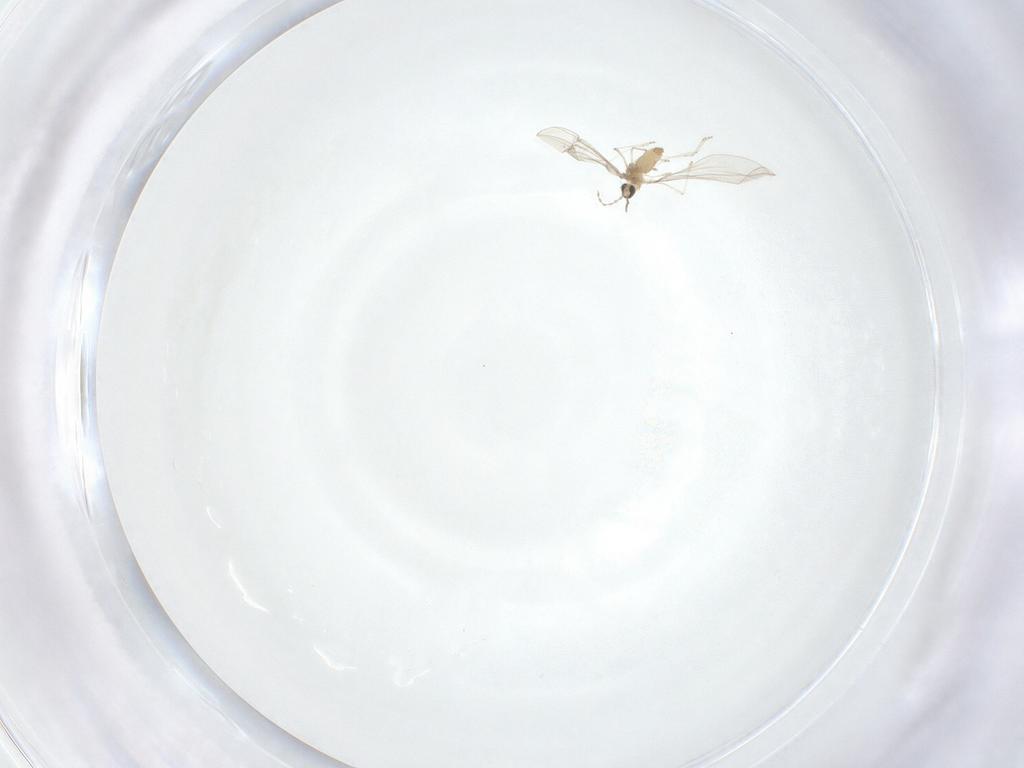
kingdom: Animalia
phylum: Arthropoda
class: Insecta
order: Diptera
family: Cecidomyiidae
